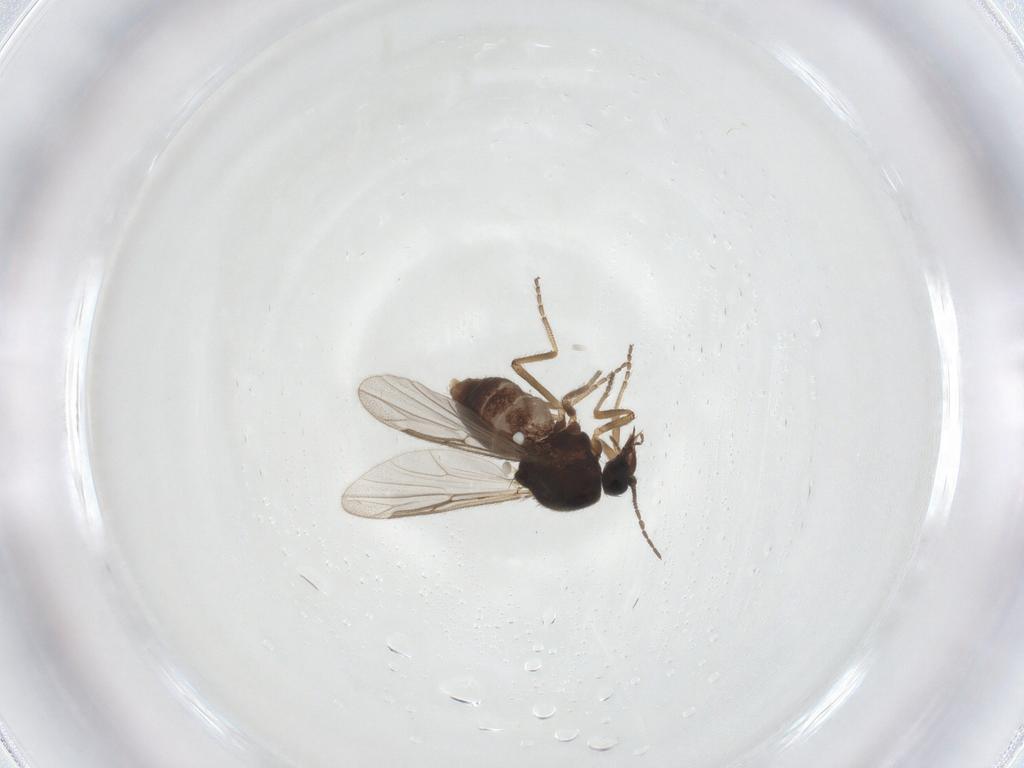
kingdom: Animalia
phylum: Arthropoda
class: Insecta
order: Diptera
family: Ceratopogonidae
